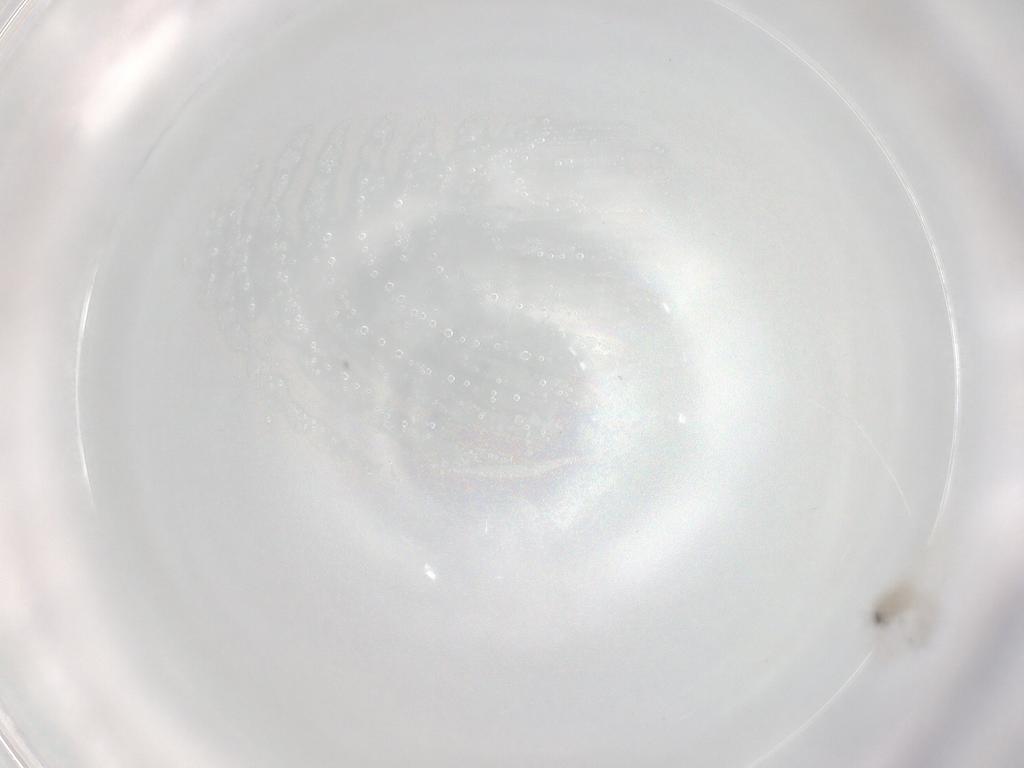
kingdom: Animalia
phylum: Arthropoda
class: Insecta
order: Diptera
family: Cecidomyiidae
